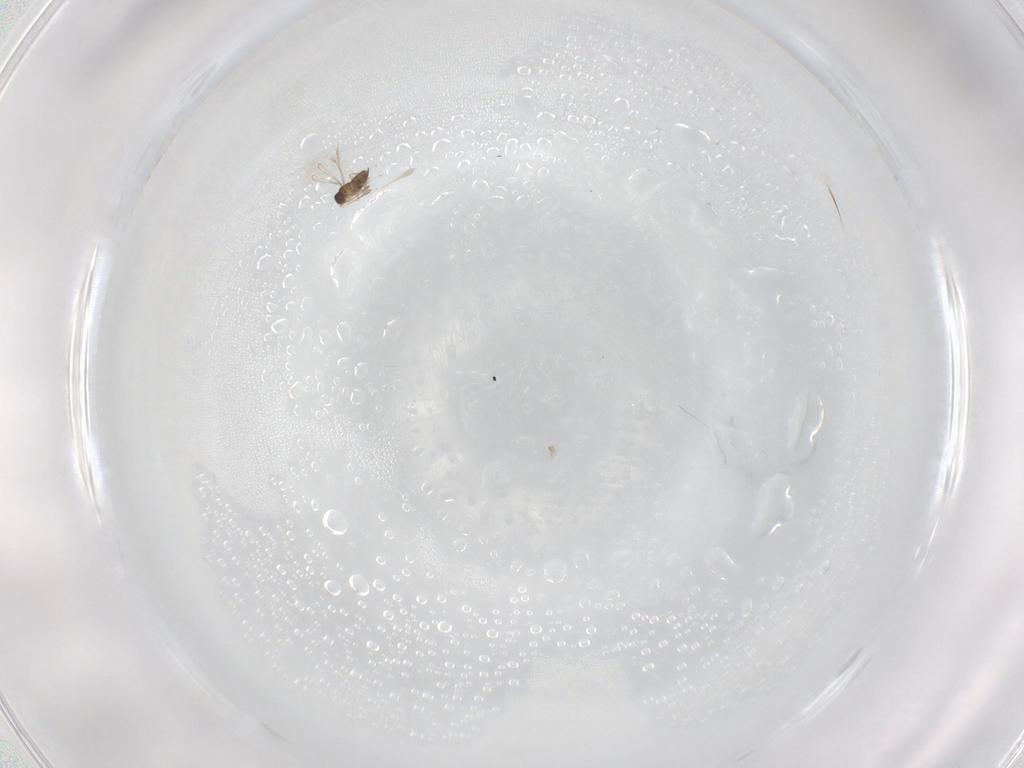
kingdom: Animalia
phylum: Arthropoda
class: Insecta
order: Hymenoptera
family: Mymaridae
